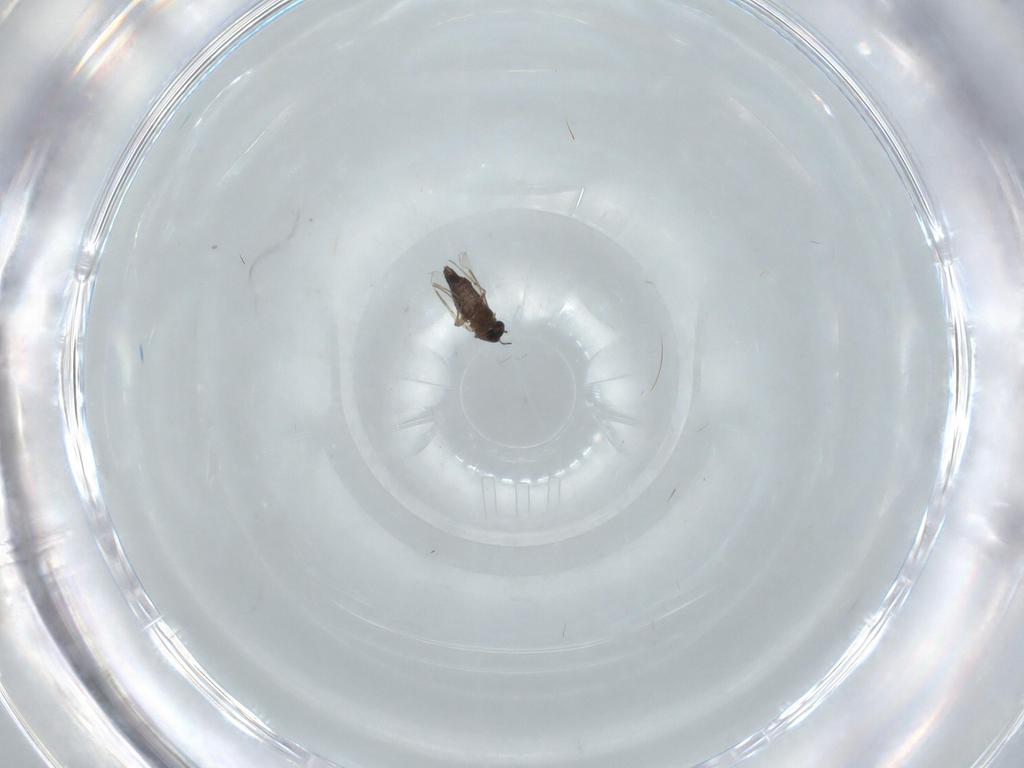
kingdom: Animalia
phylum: Arthropoda
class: Insecta
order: Diptera
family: Chironomidae
